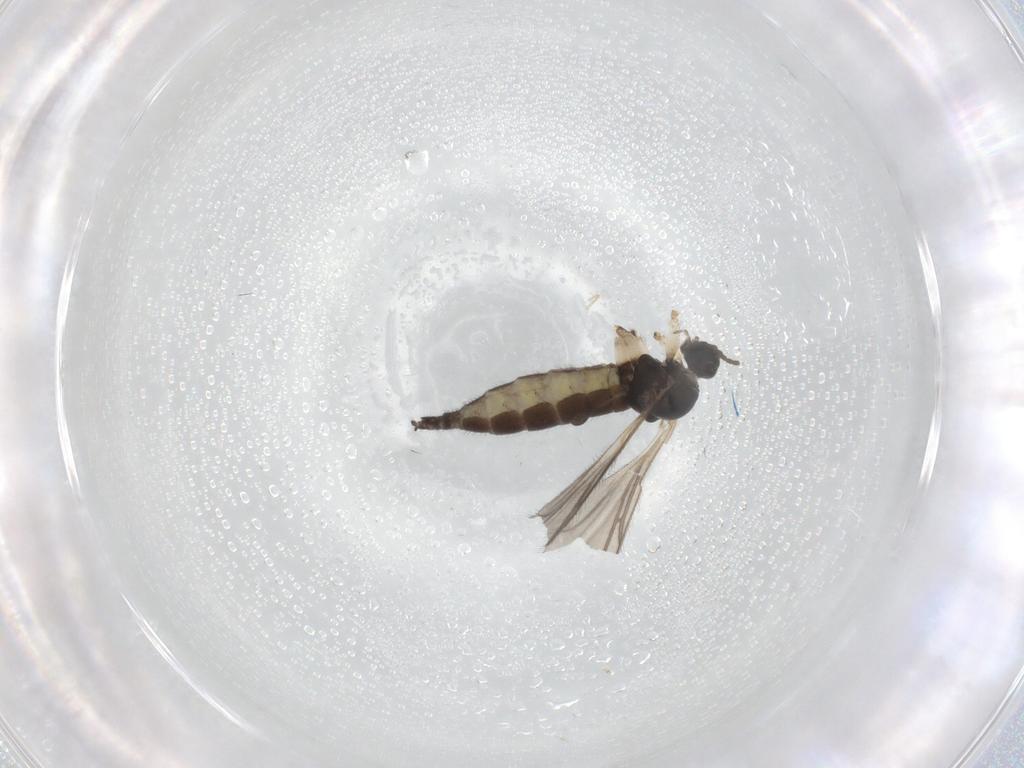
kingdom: Animalia
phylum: Arthropoda
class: Insecta
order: Diptera
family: Sciaridae
